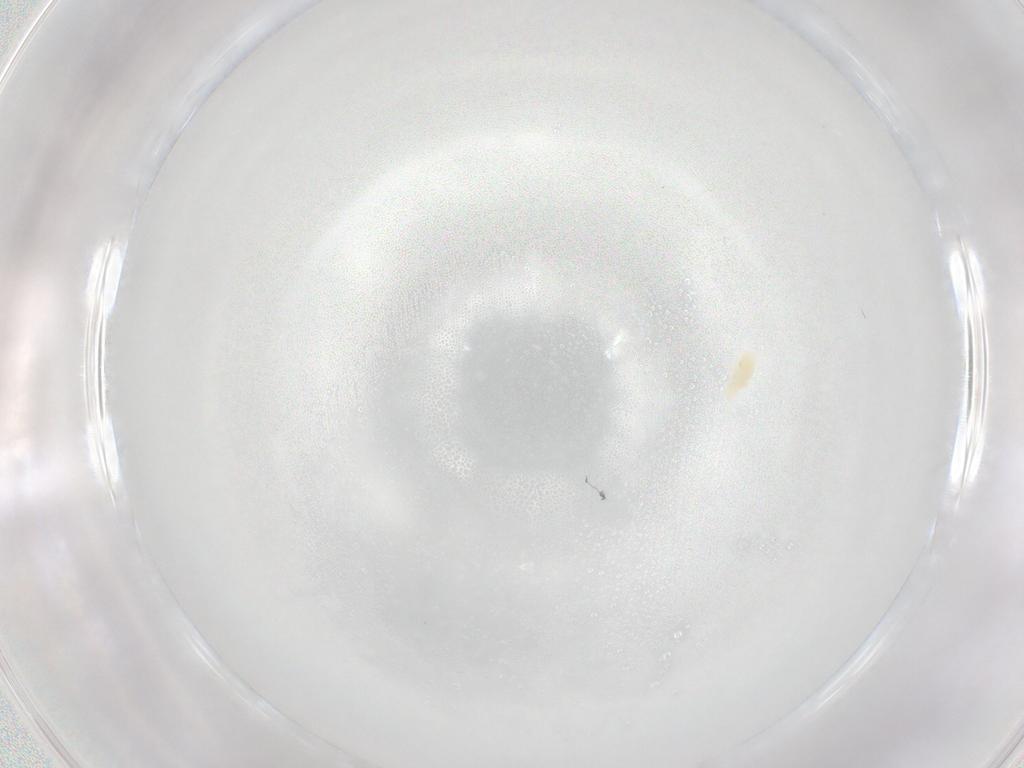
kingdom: Animalia
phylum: Arthropoda
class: Arachnida
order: Trombidiformes
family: Eupodidae
